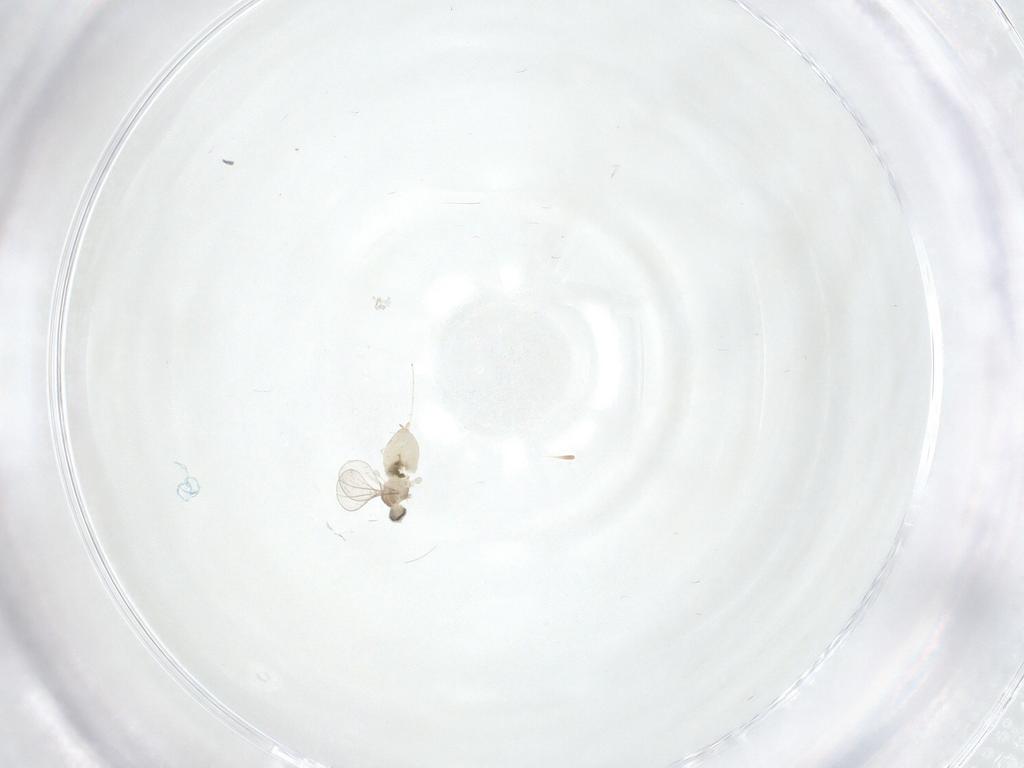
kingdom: Animalia
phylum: Arthropoda
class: Insecta
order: Diptera
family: Cecidomyiidae
